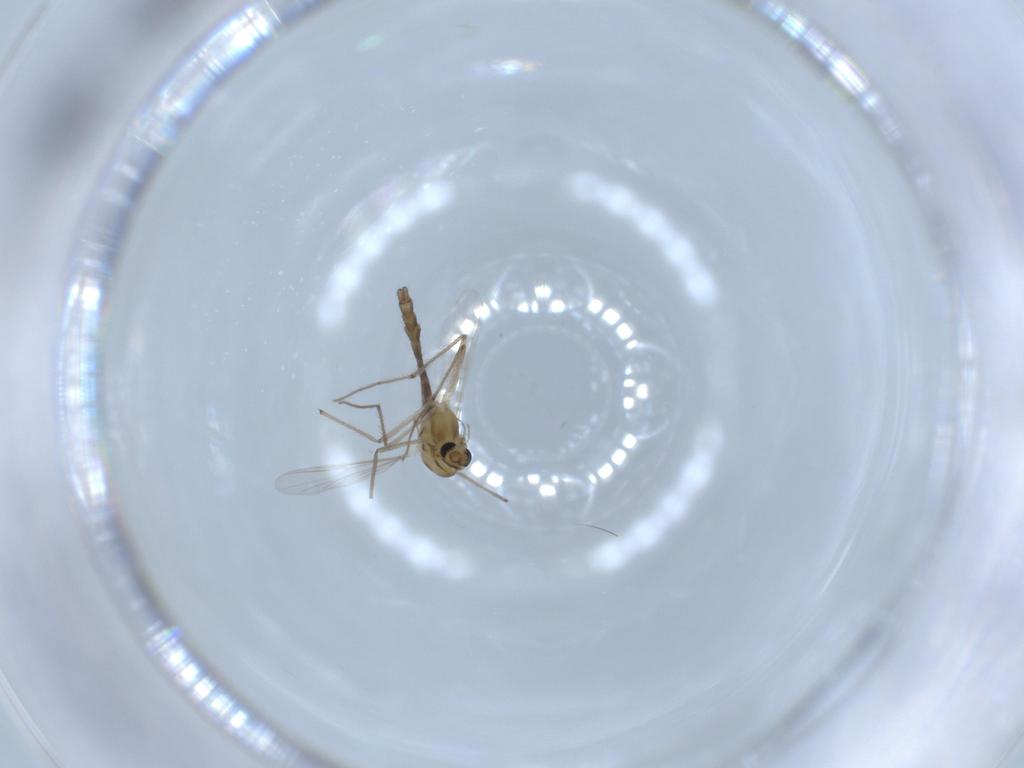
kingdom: Animalia
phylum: Arthropoda
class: Insecta
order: Diptera
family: Chironomidae
